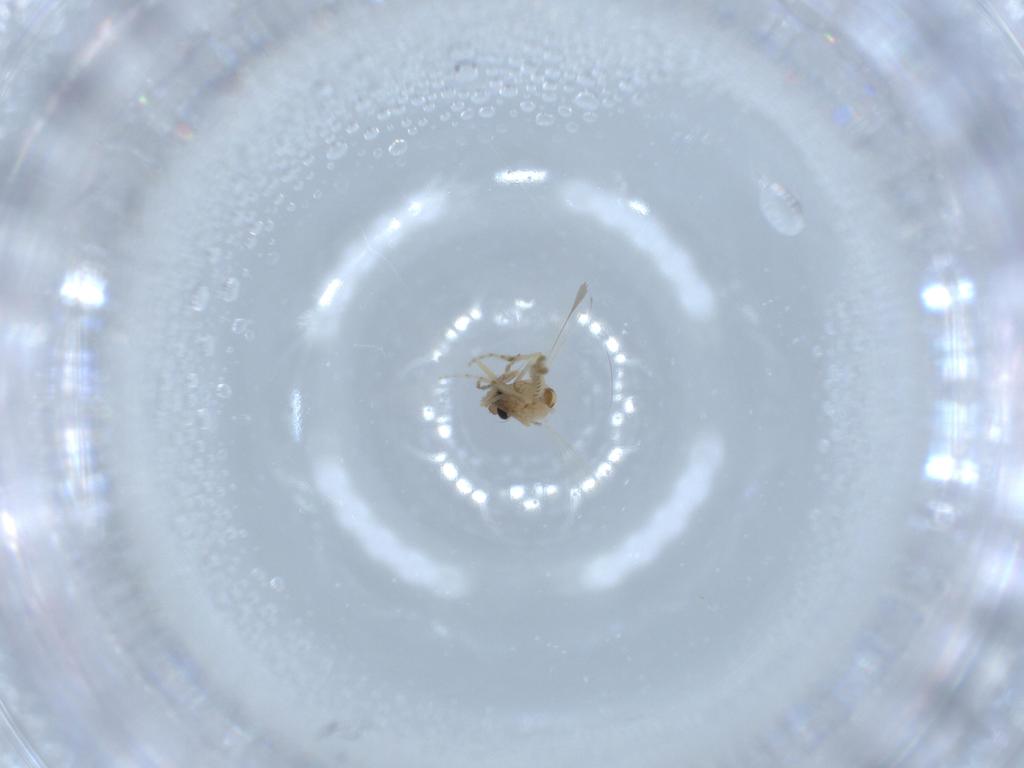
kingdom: Animalia
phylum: Arthropoda
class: Insecta
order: Diptera
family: Ceratopogonidae
